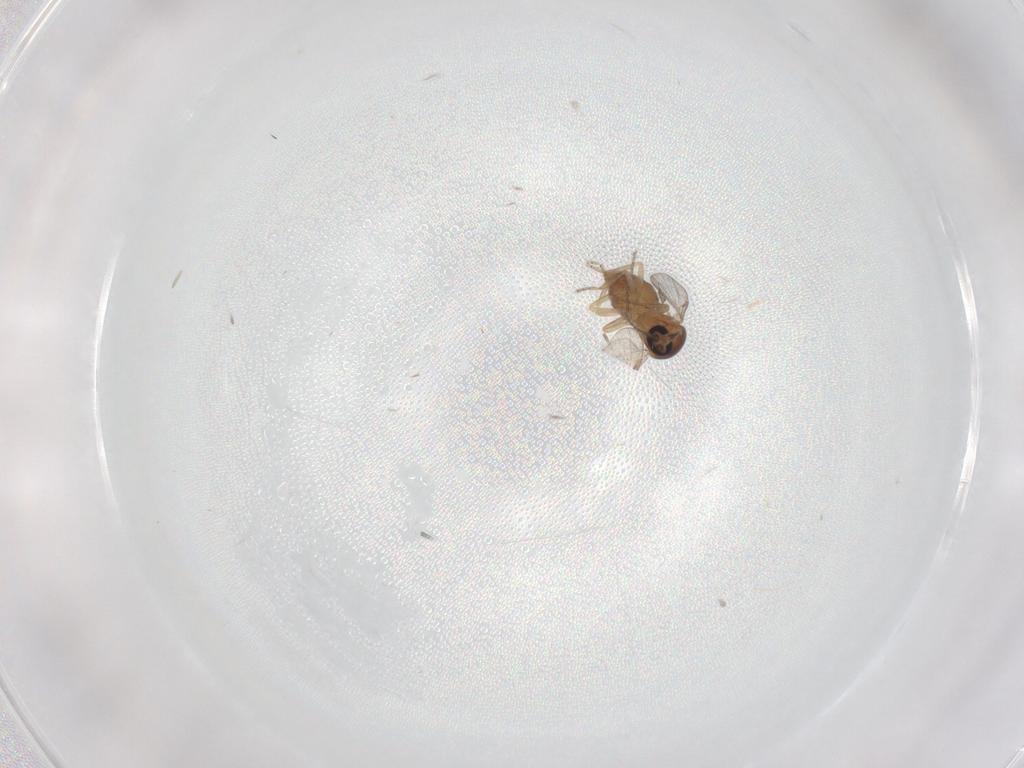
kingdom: Animalia
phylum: Arthropoda
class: Insecta
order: Diptera
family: Ceratopogonidae
